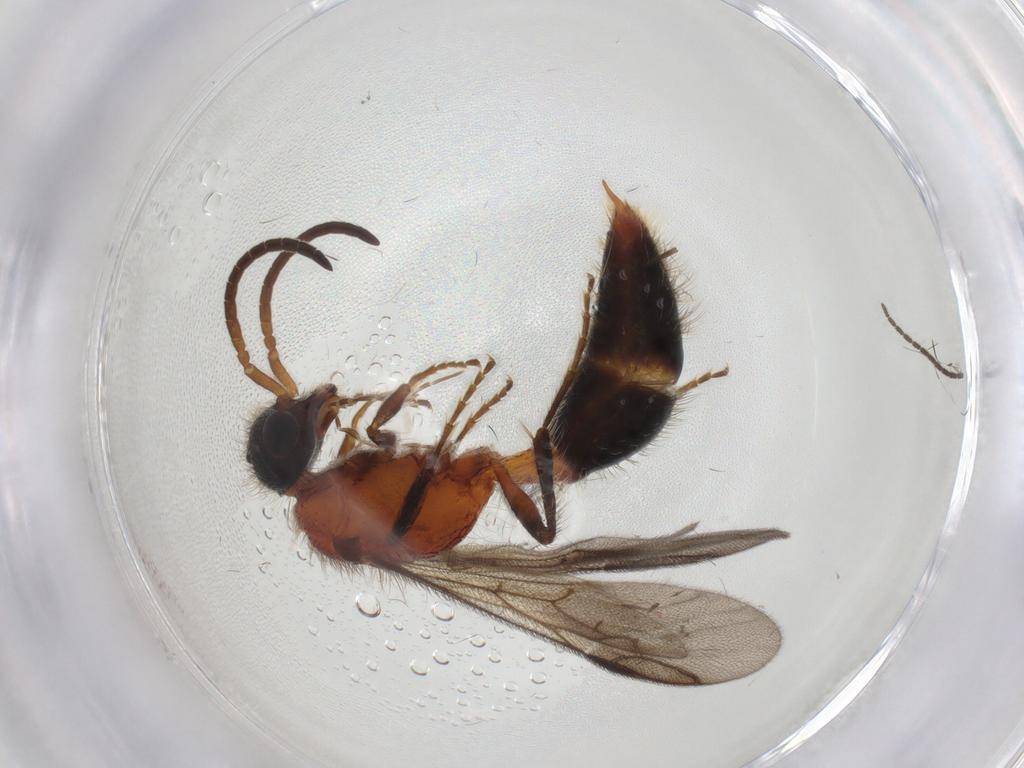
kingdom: Animalia
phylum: Arthropoda
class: Insecta
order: Hymenoptera
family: Mutillidae
